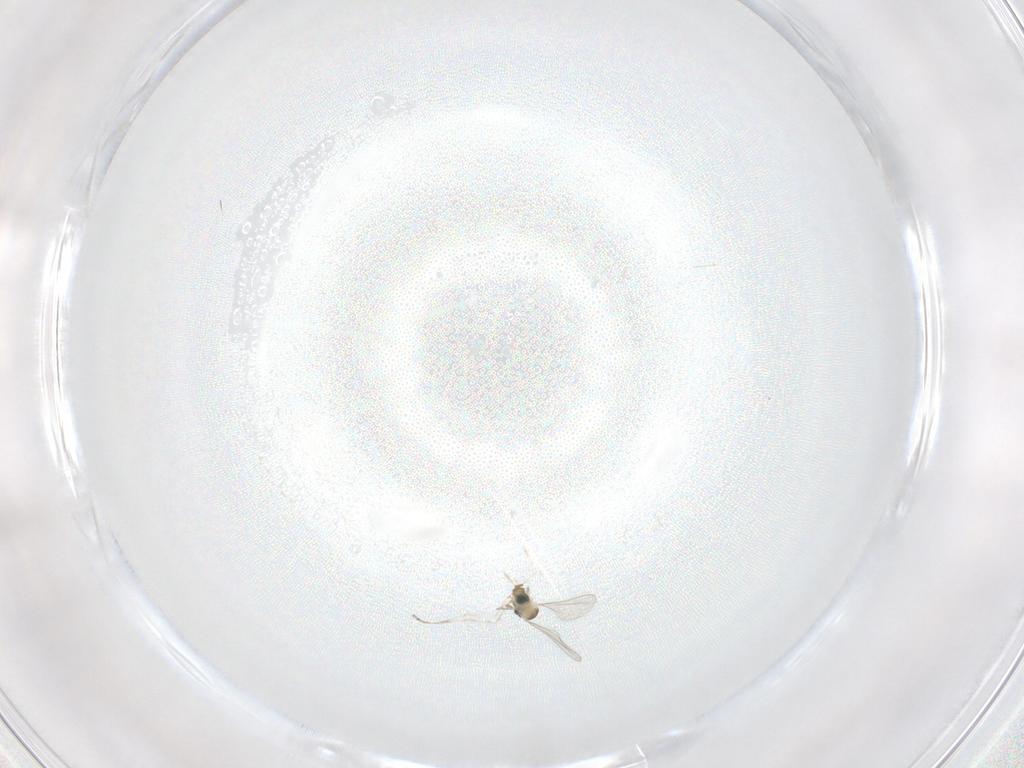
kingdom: Animalia
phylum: Arthropoda
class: Insecta
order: Diptera
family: Cecidomyiidae
